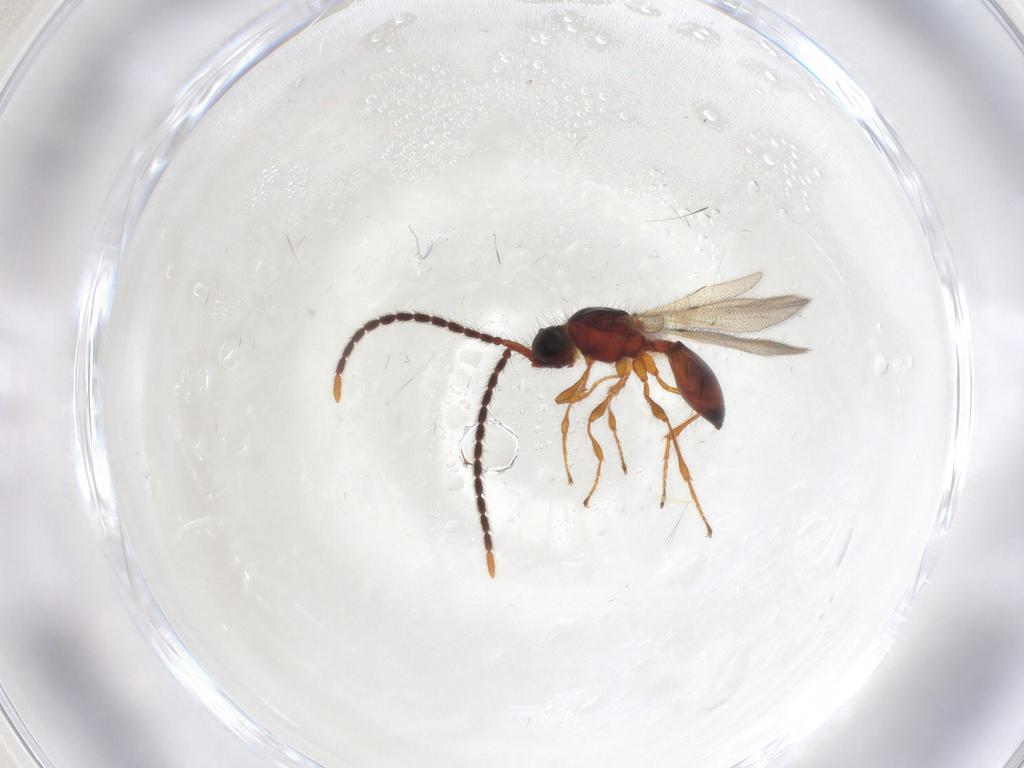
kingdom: Animalia
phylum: Arthropoda
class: Insecta
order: Hymenoptera
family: Diapriidae
